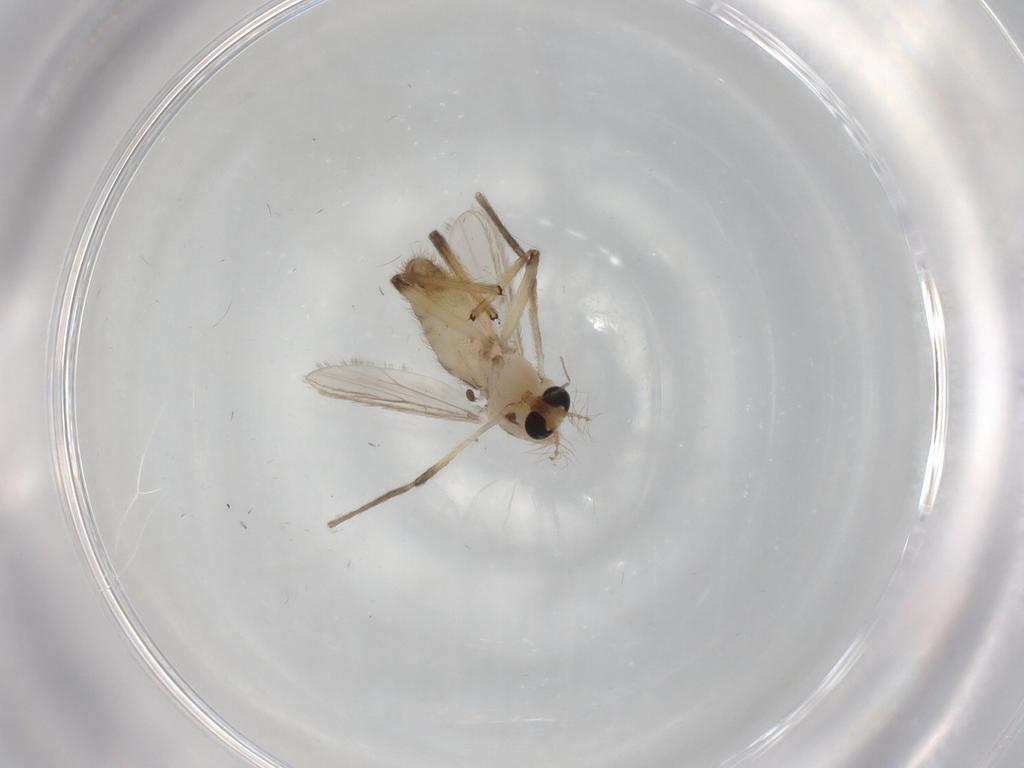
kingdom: Animalia
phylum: Arthropoda
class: Insecta
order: Diptera
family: Chironomidae
